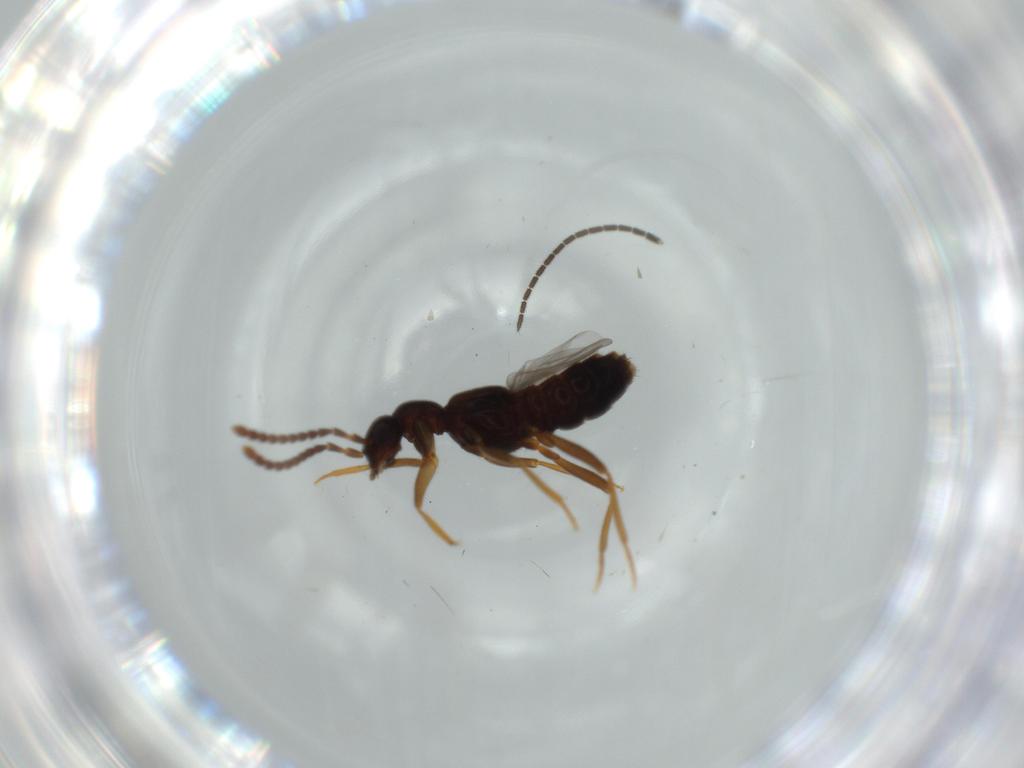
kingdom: Animalia
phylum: Arthropoda
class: Insecta
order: Coleoptera
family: Staphylinidae
